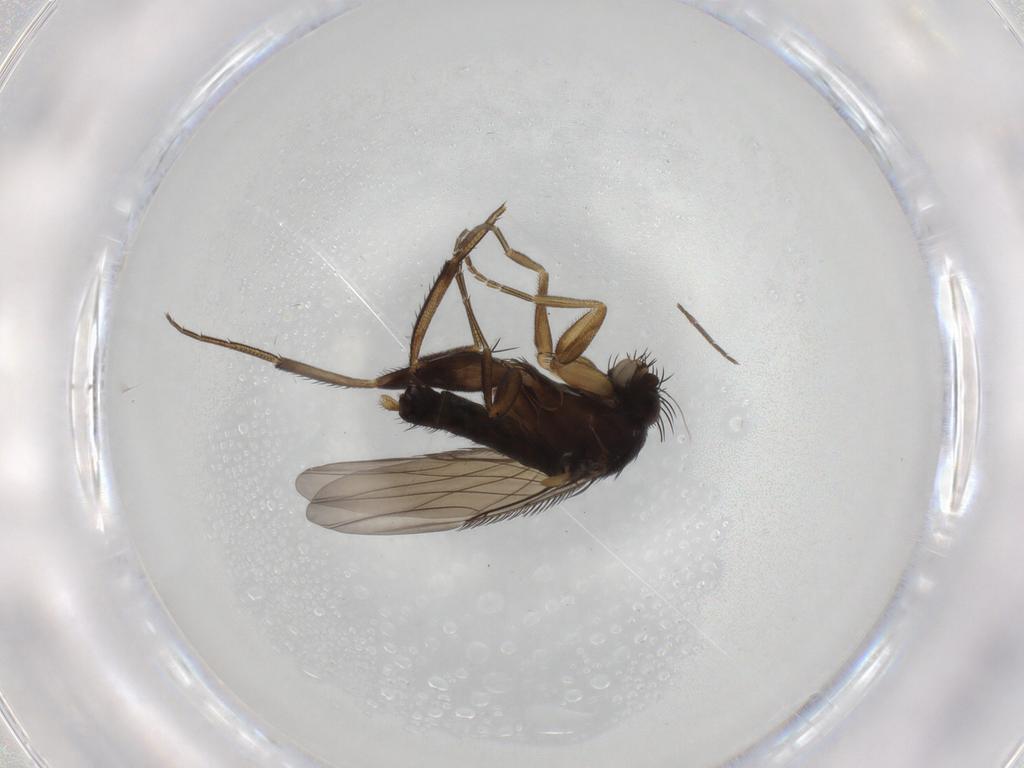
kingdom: Animalia
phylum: Arthropoda
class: Insecta
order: Diptera
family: Phoridae
